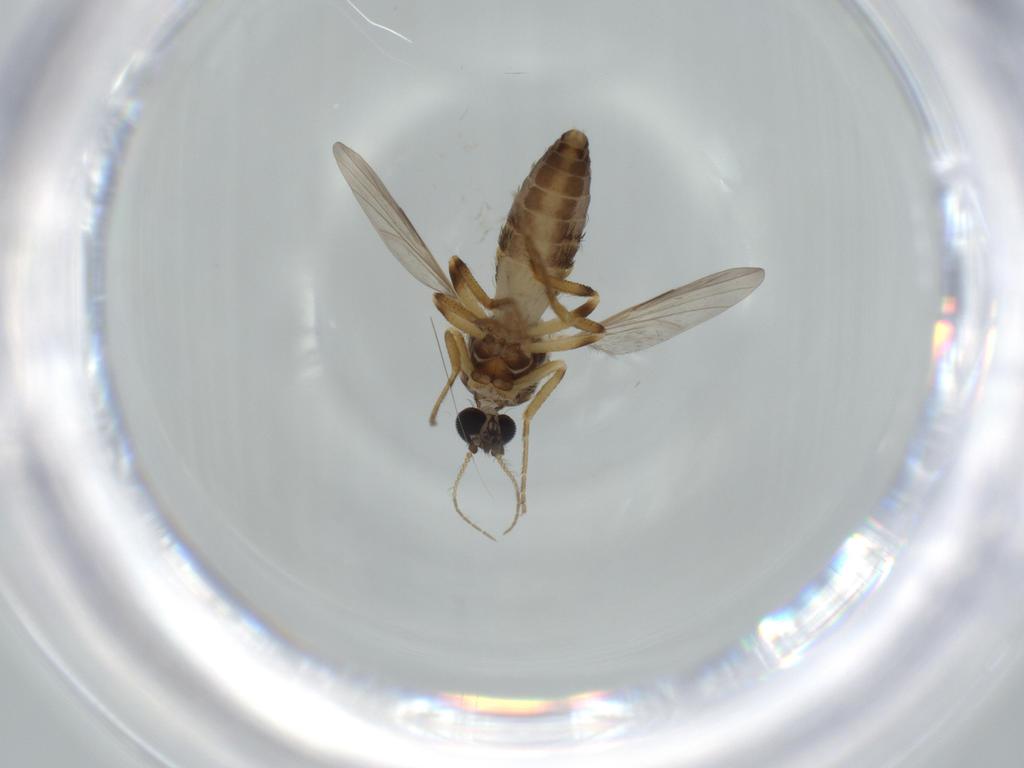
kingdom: Animalia
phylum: Arthropoda
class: Insecta
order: Diptera
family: Ceratopogonidae
